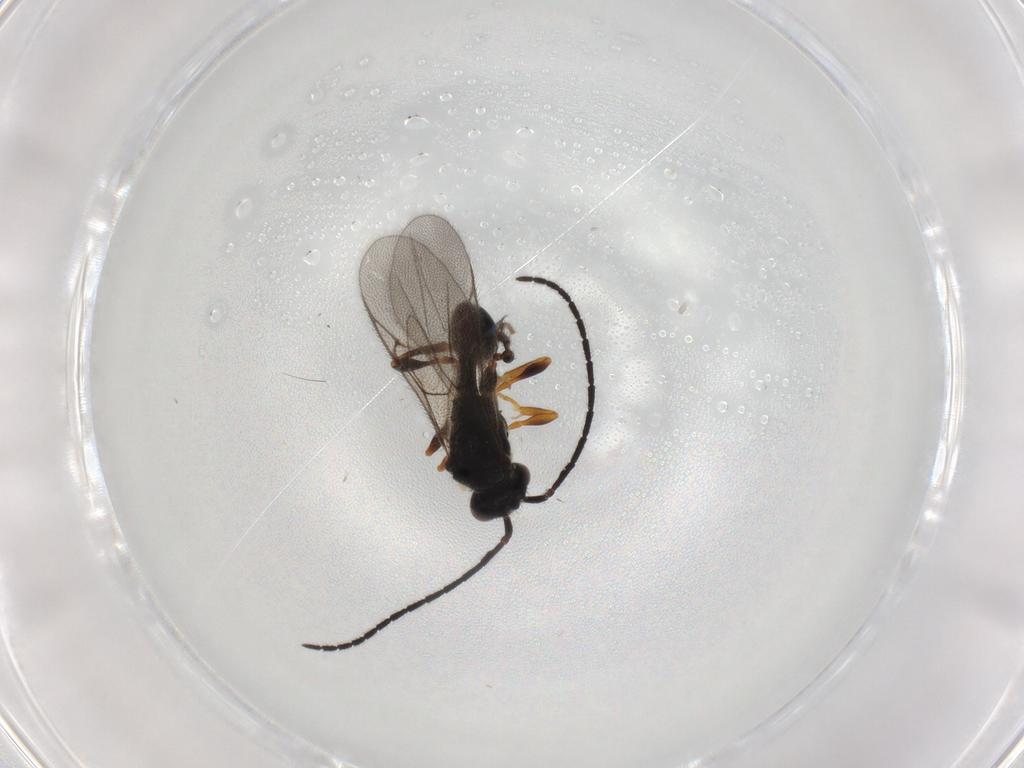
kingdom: Animalia
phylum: Arthropoda
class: Insecta
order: Hymenoptera
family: Diapriidae
